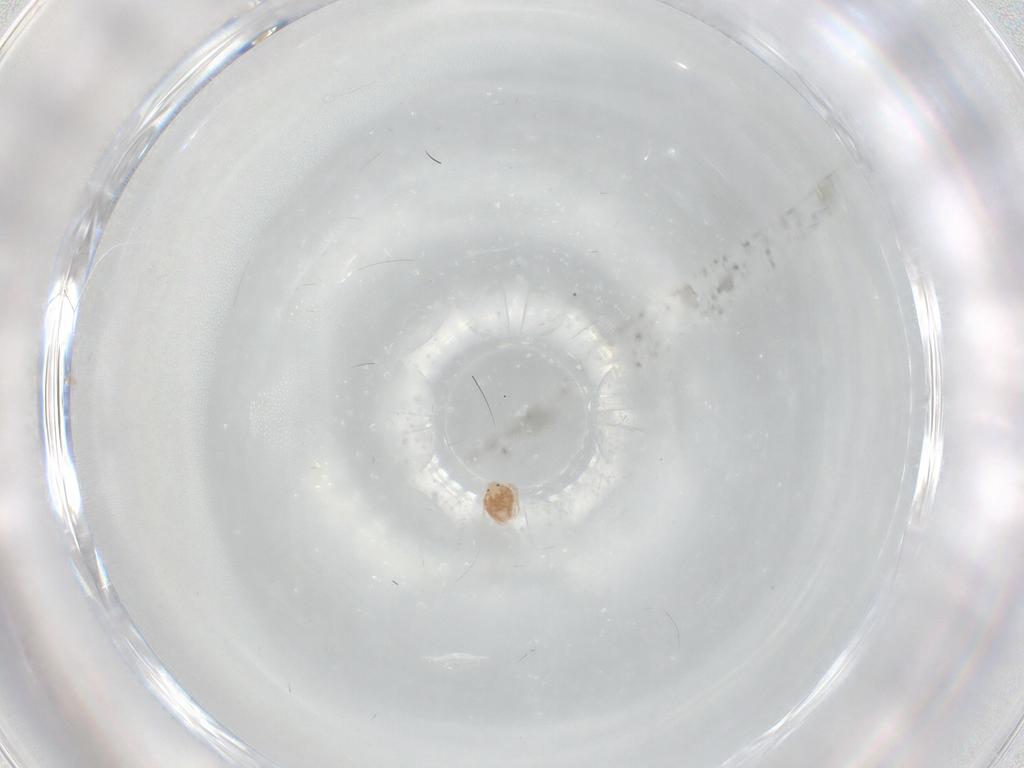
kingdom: Animalia
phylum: Arthropoda
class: Arachnida
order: Trombidiformes
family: Hygrobatidae
